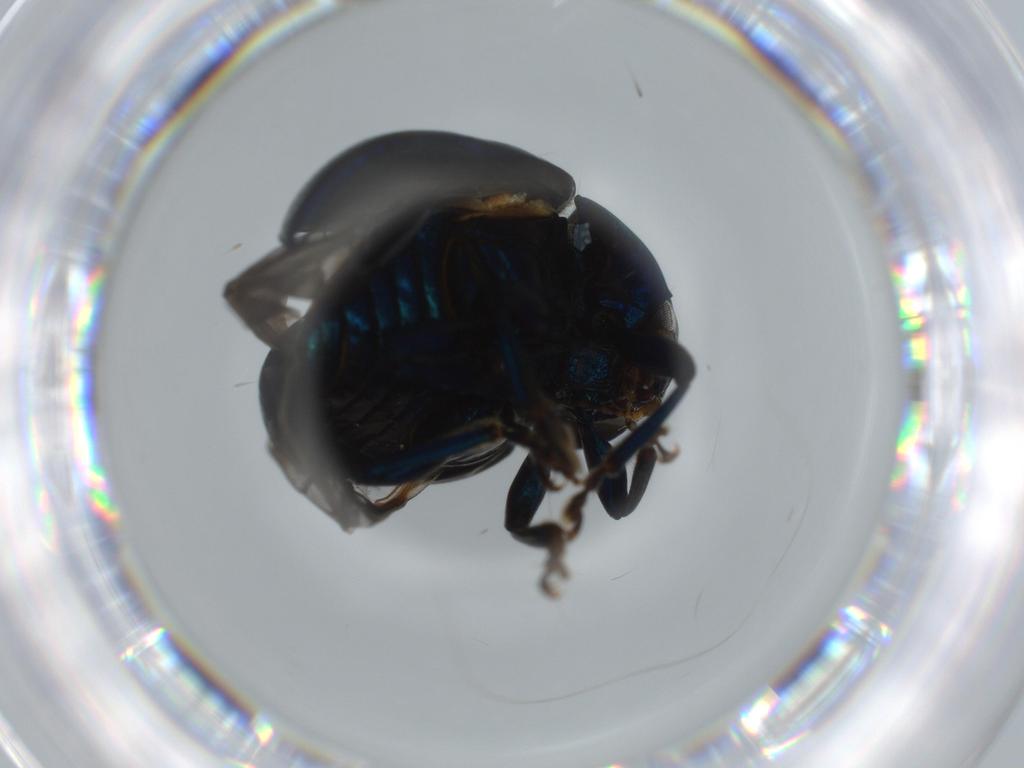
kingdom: Animalia
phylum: Arthropoda
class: Insecta
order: Coleoptera
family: Chrysomelidae
